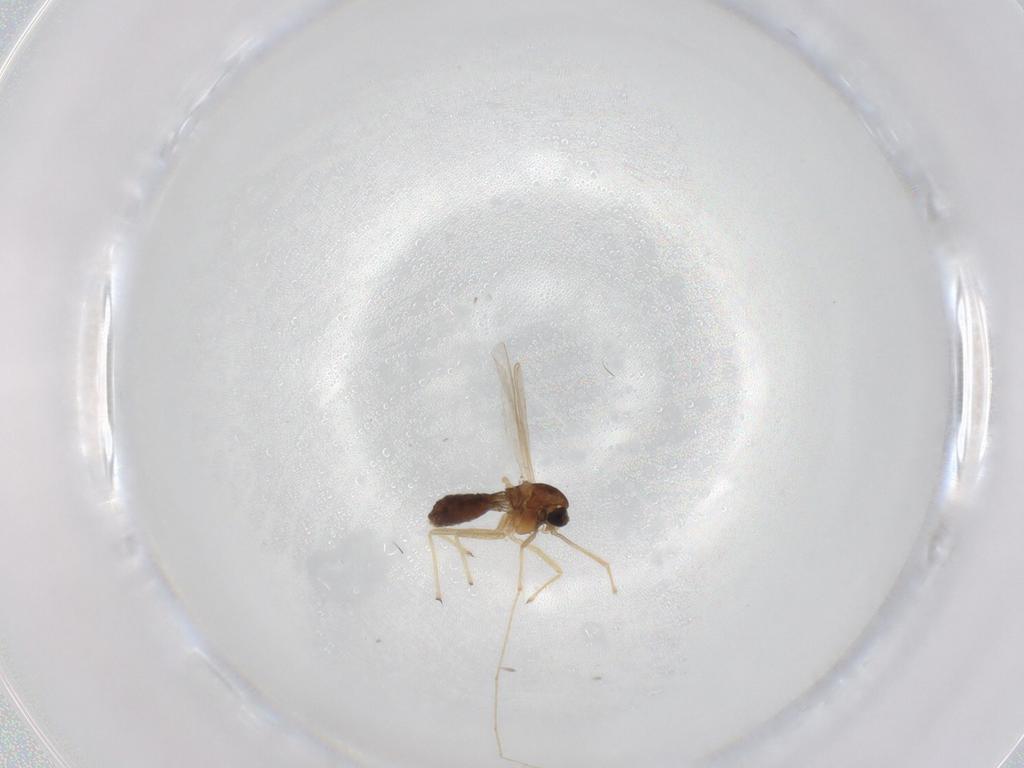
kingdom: Animalia
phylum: Arthropoda
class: Insecta
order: Diptera
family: Chironomidae
